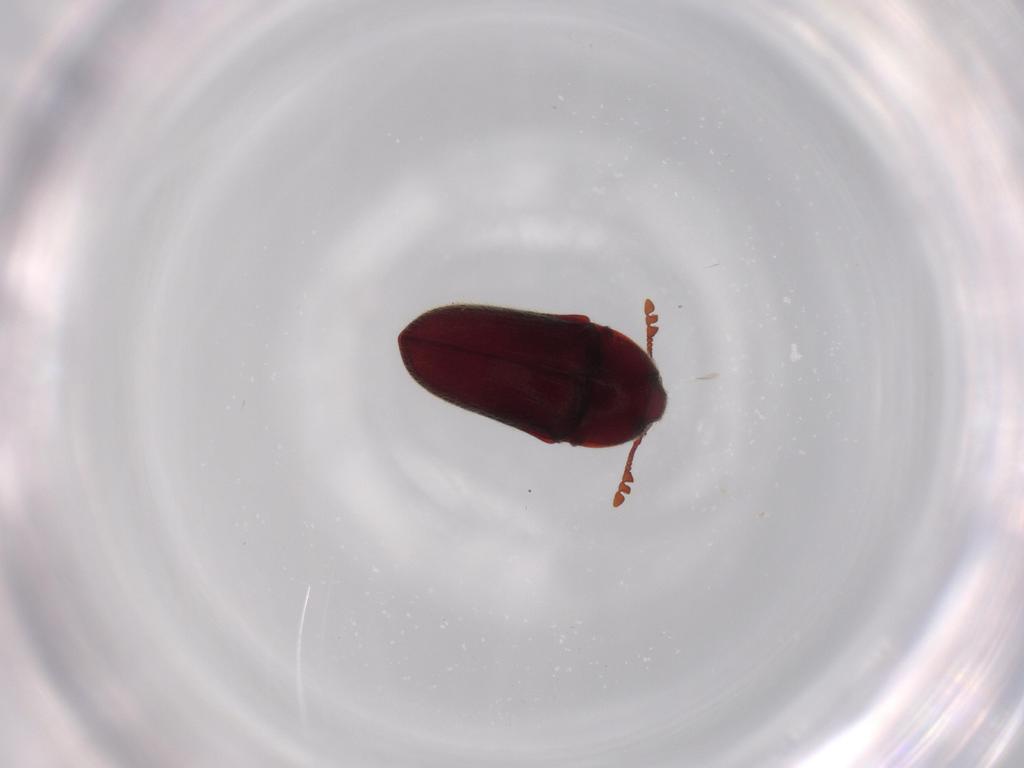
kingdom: Animalia
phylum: Arthropoda
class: Insecta
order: Coleoptera
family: Throscidae
